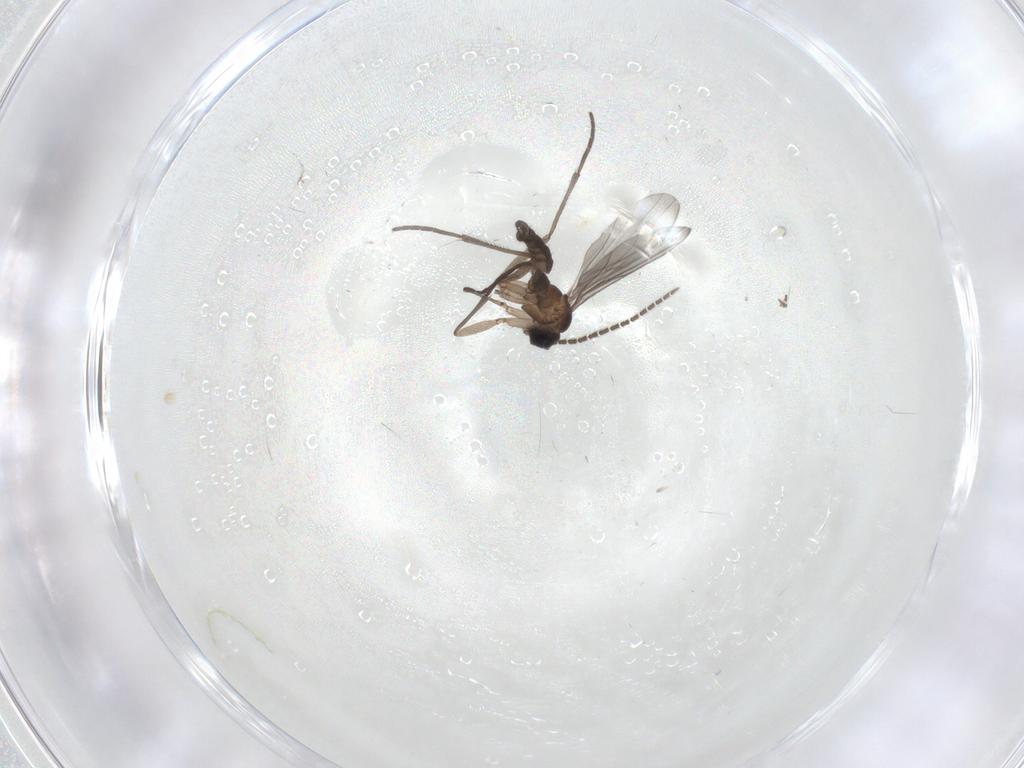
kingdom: Animalia
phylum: Arthropoda
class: Insecta
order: Diptera
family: Sciaridae
